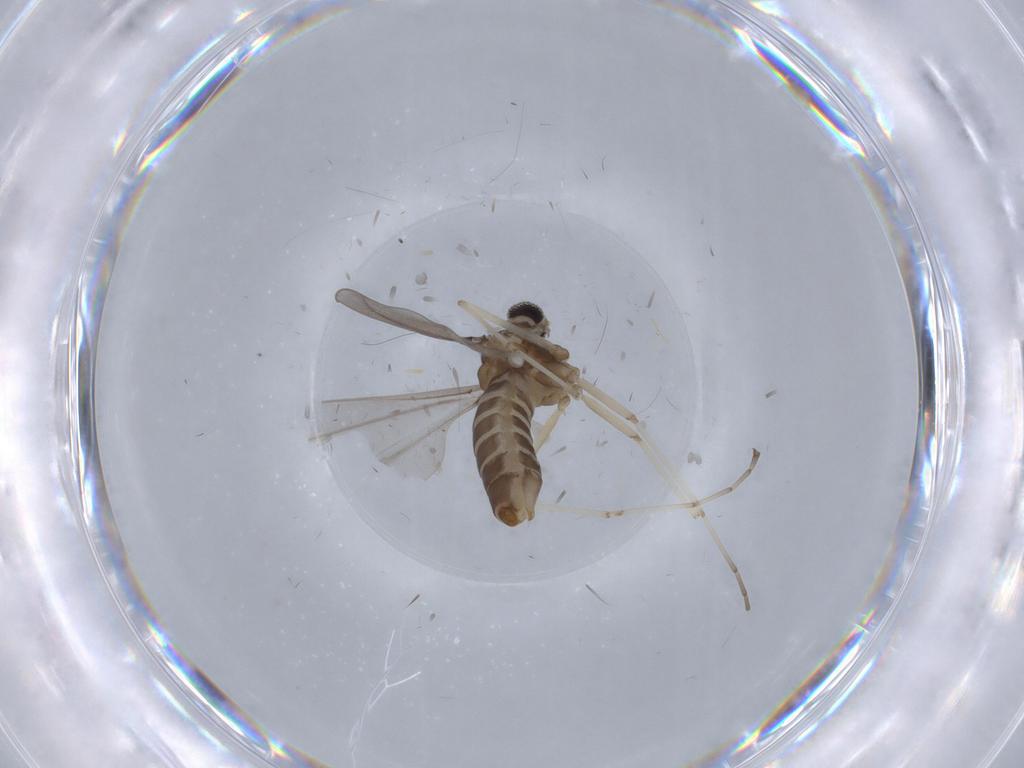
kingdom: Animalia
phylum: Arthropoda
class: Insecta
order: Diptera
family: Cecidomyiidae
